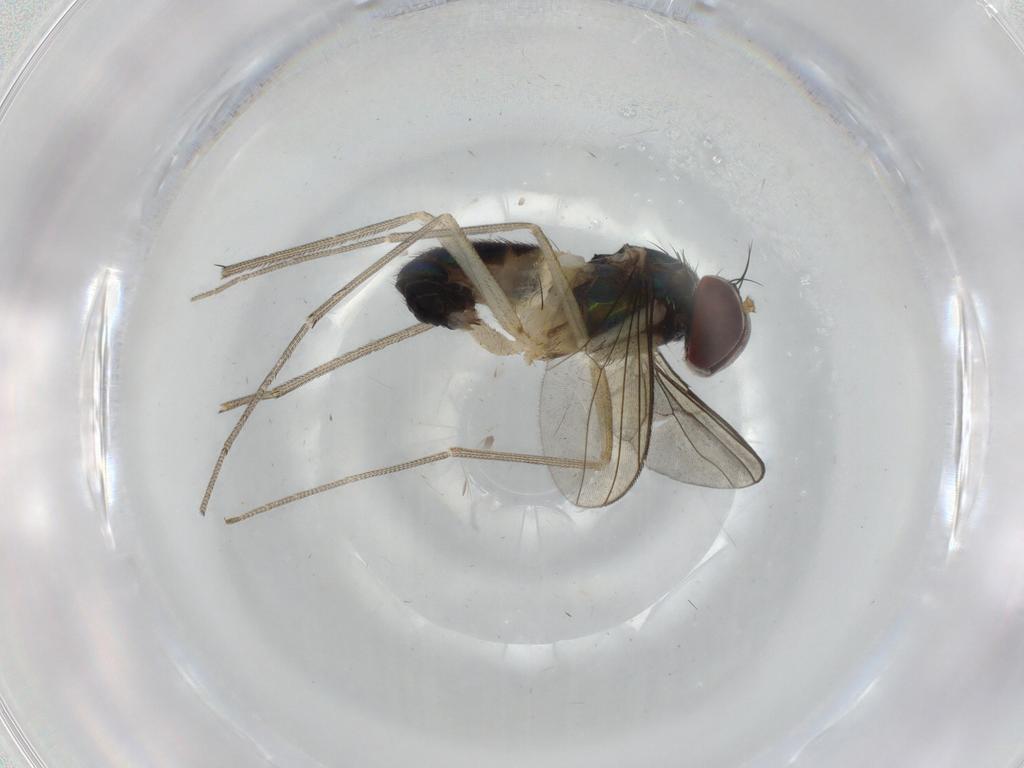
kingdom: Animalia
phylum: Arthropoda
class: Insecta
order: Diptera
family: Dolichopodidae
